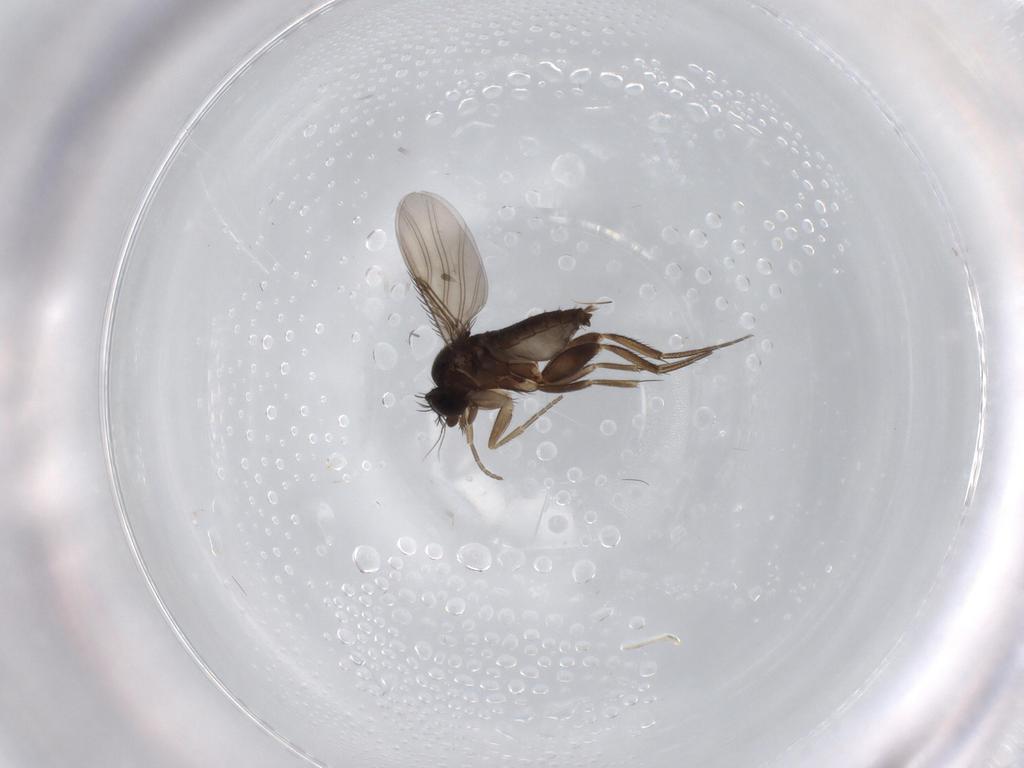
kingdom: Animalia
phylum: Arthropoda
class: Insecta
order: Diptera
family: Phoridae
